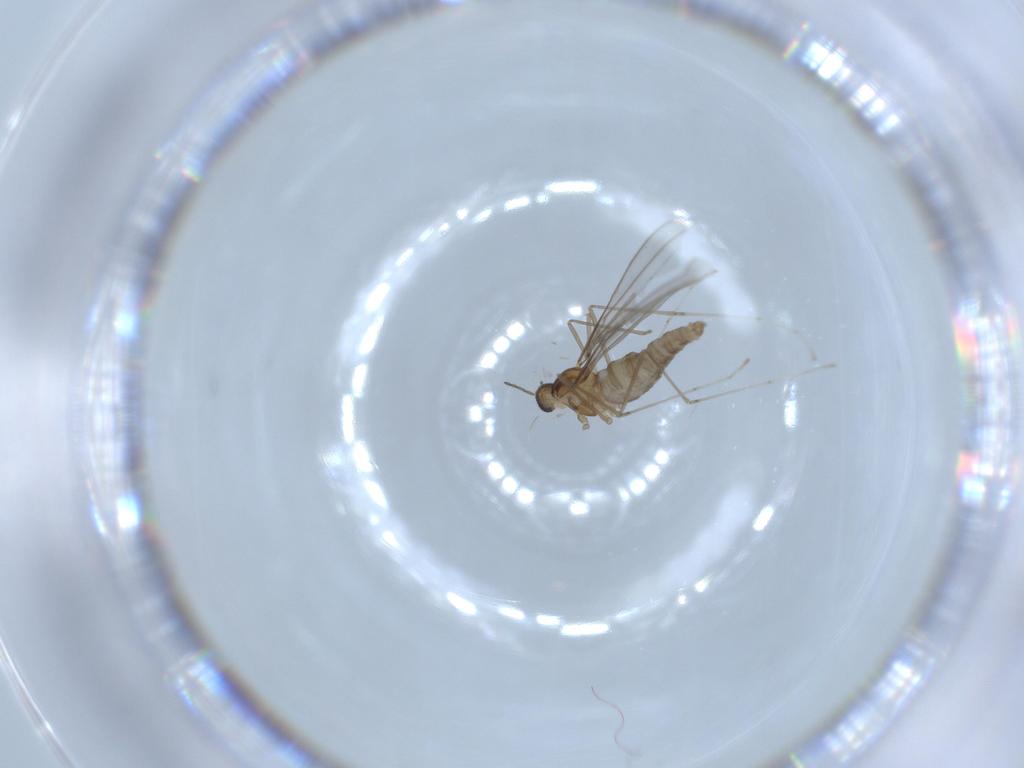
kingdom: Animalia
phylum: Arthropoda
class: Insecta
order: Diptera
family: Cecidomyiidae
